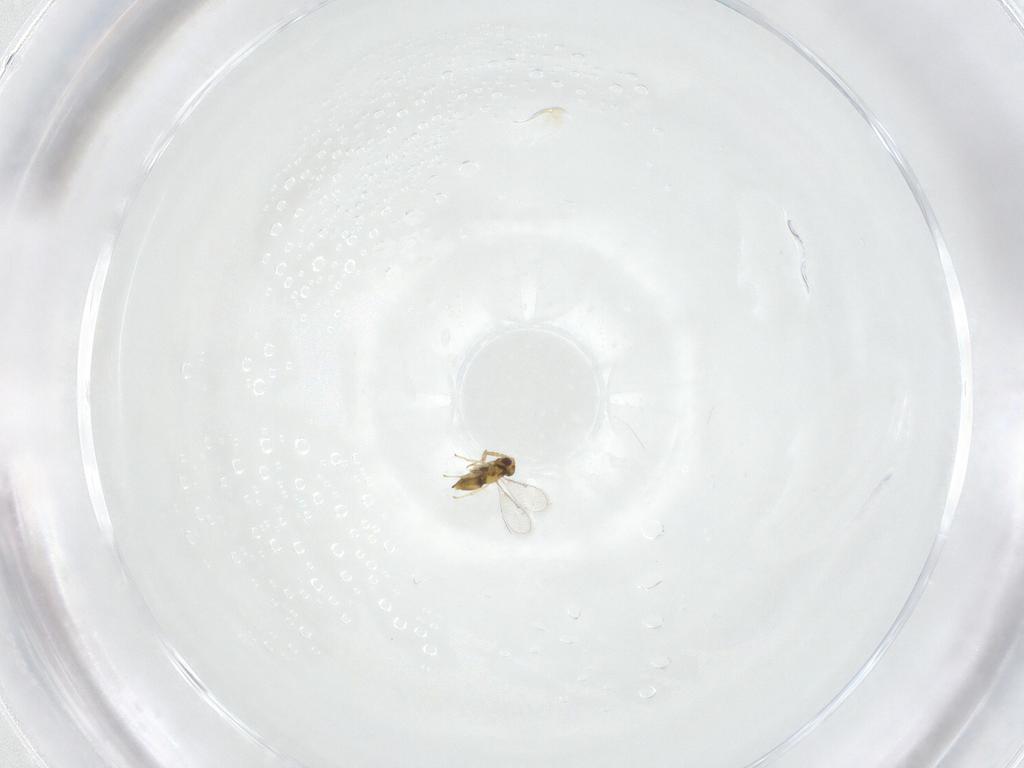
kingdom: Animalia
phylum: Arthropoda
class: Insecta
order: Hymenoptera
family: Aphelinidae
